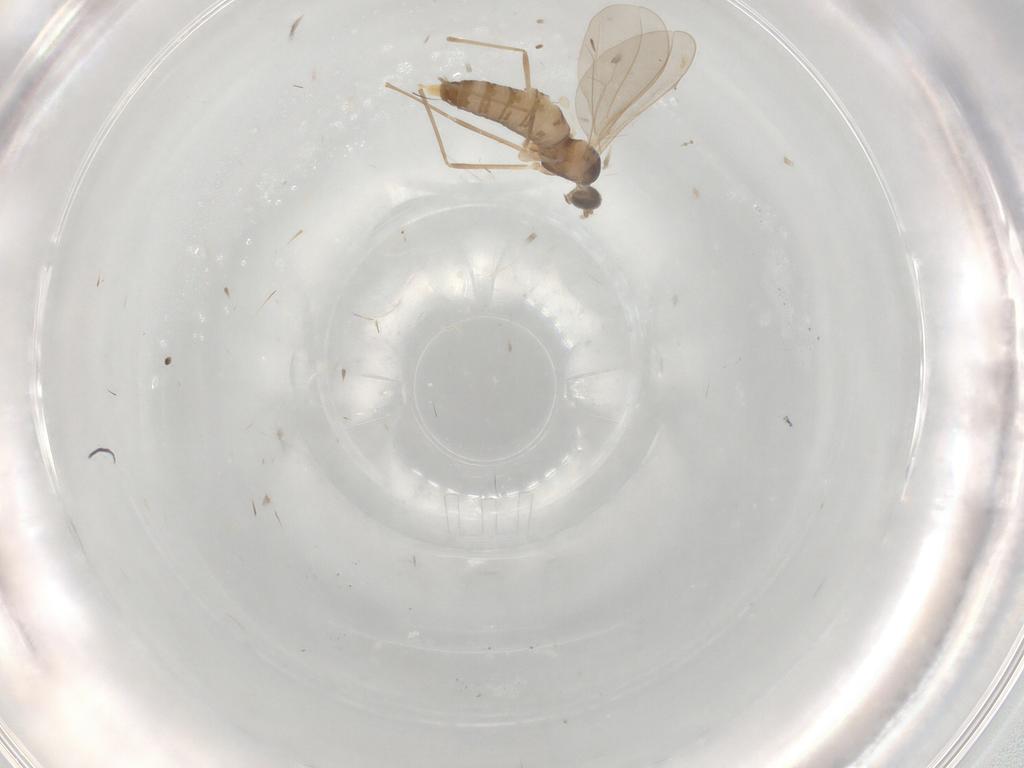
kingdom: Animalia
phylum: Arthropoda
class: Insecta
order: Diptera
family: Cecidomyiidae
